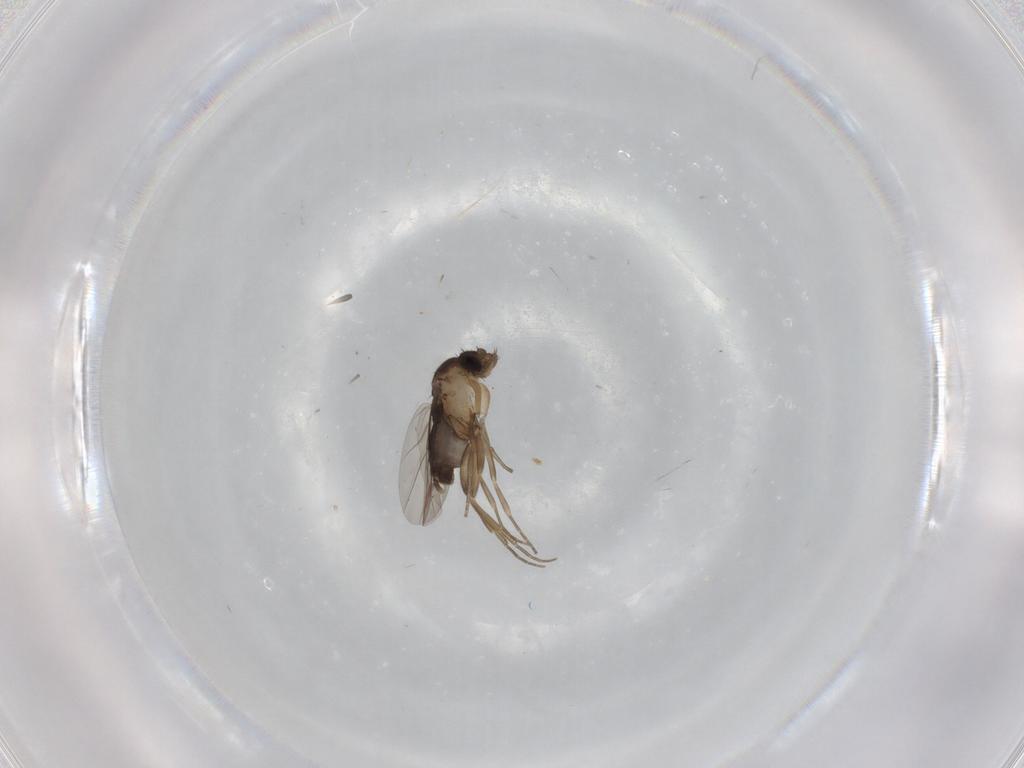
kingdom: Animalia
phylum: Arthropoda
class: Insecta
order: Diptera
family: Phoridae
